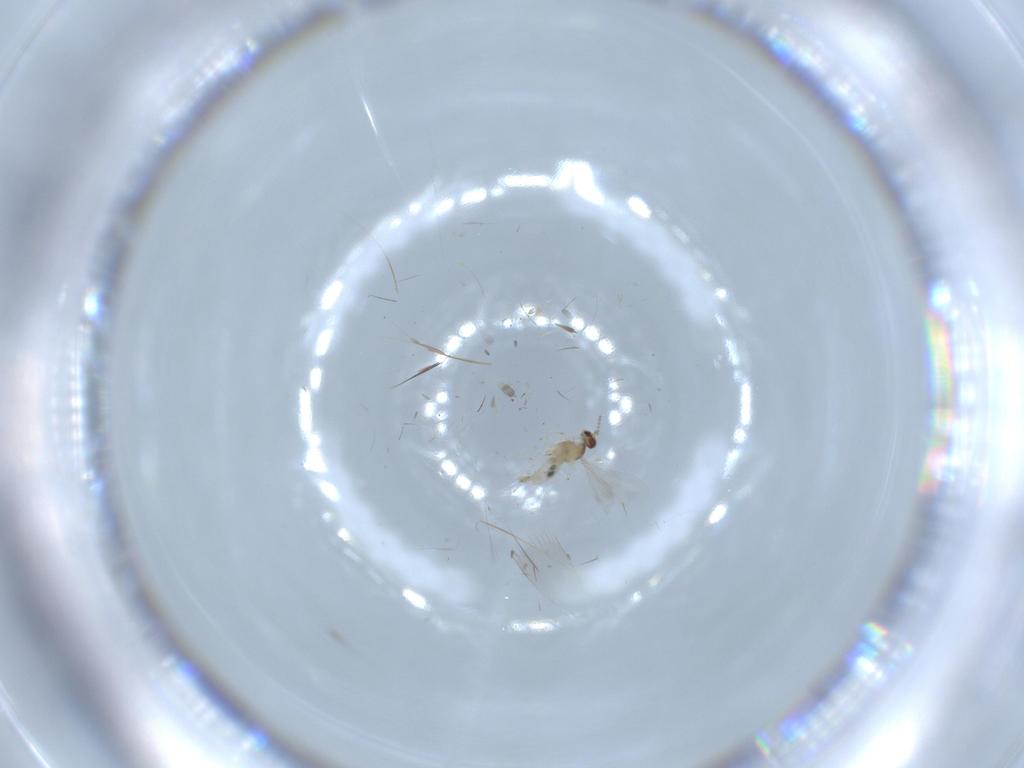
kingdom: Animalia
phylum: Arthropoda
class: Insecta
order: Diptera
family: Cecidomyiidae
